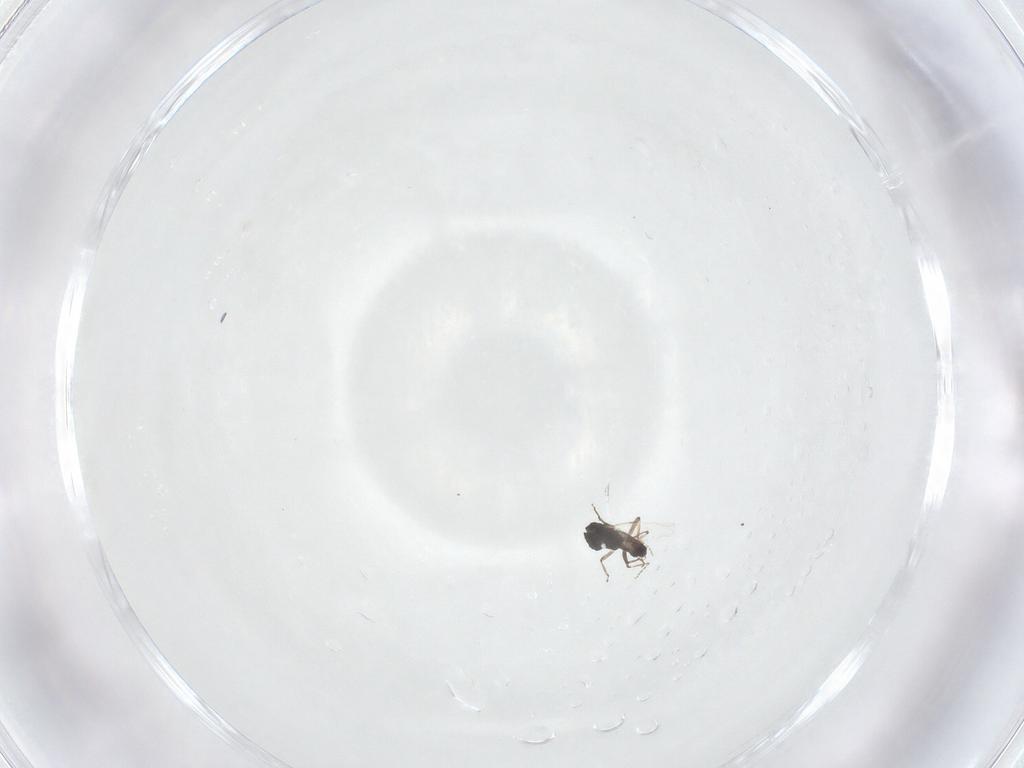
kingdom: Animalia
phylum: Arthropoda
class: Insecta
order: Diptera
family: Ceratopogonidae
